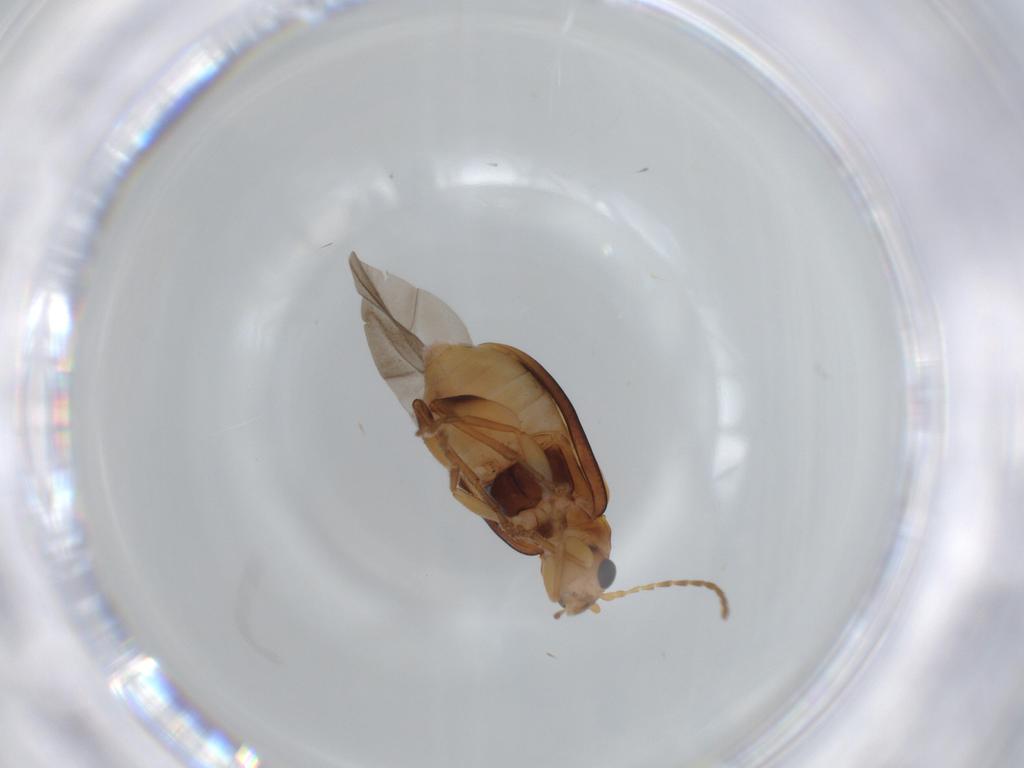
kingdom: Animalia
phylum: Arthropoda
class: Insecta
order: Coleoptera
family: Chrysomelidae
